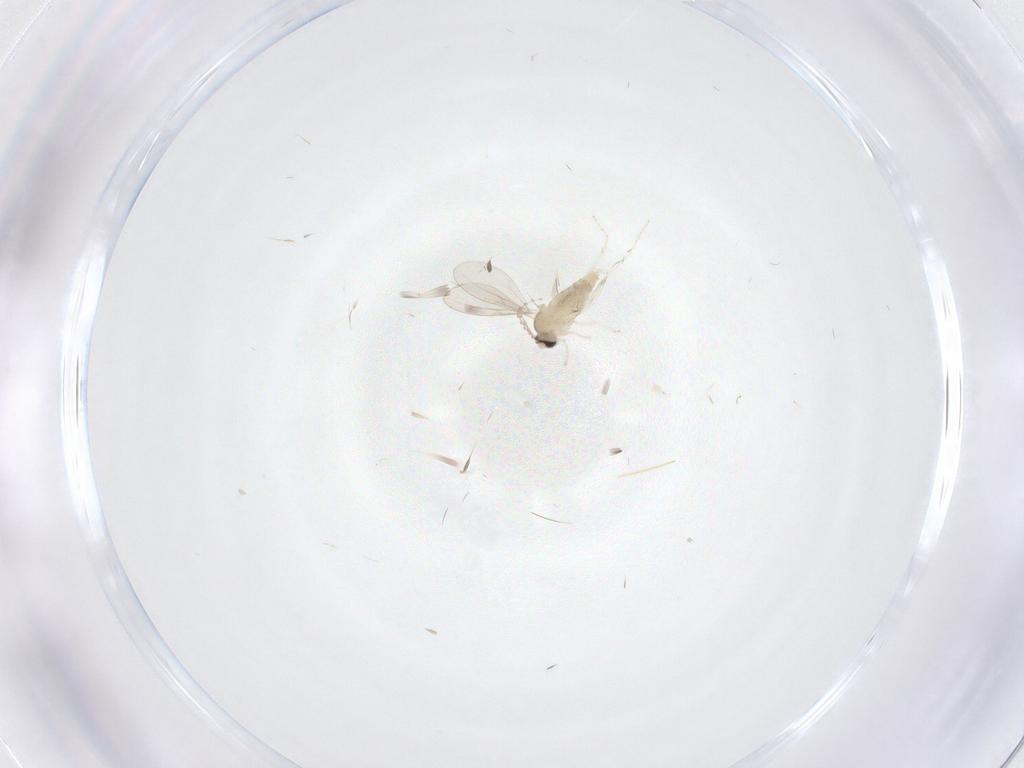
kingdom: Animalia
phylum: Arthropoda
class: Insecta
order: Diptera
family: Cecidomyiidae
